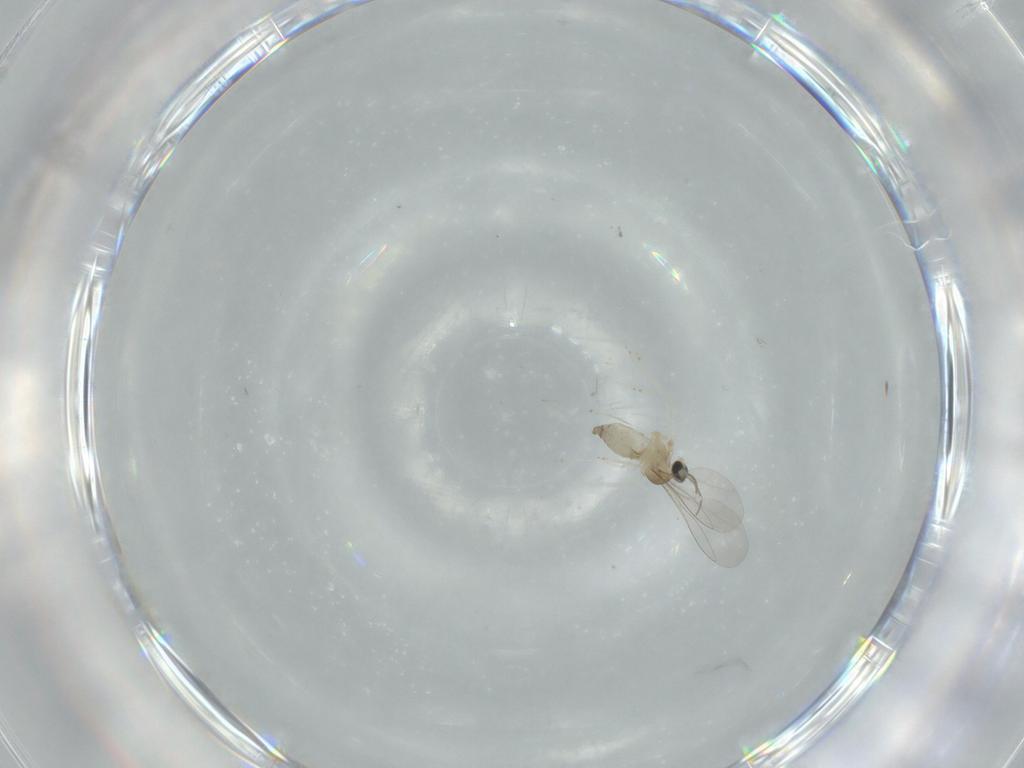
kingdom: Animalia
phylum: Arthropoda
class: Insecta
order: Diptera
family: Cecidomyiidae
